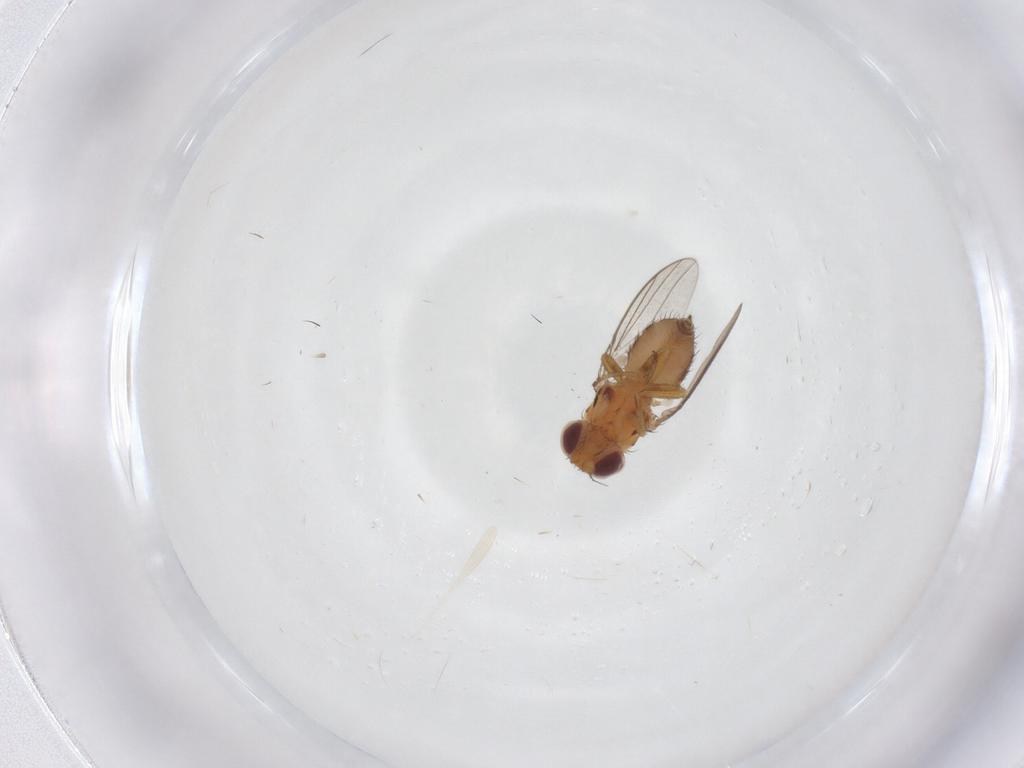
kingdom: Animalia
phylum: Arthropoda
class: Insecta
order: Diptera
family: Chloropidae
